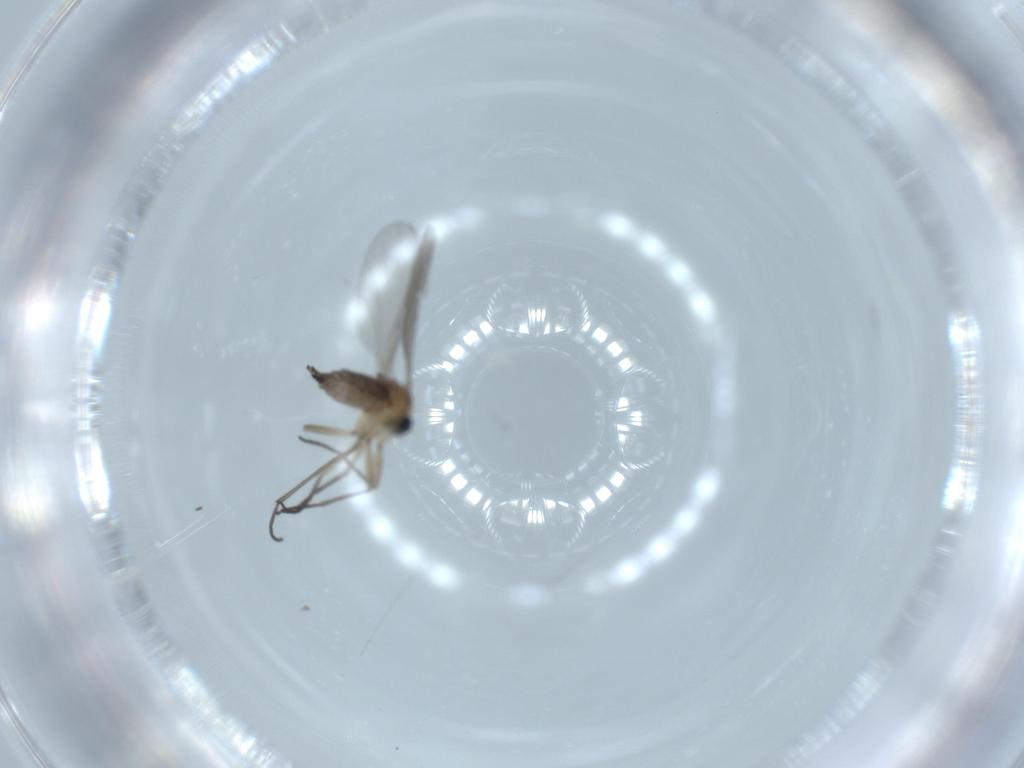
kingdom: Animalia
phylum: Arthropoda
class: Insecta
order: Diptera
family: Sciaridae
